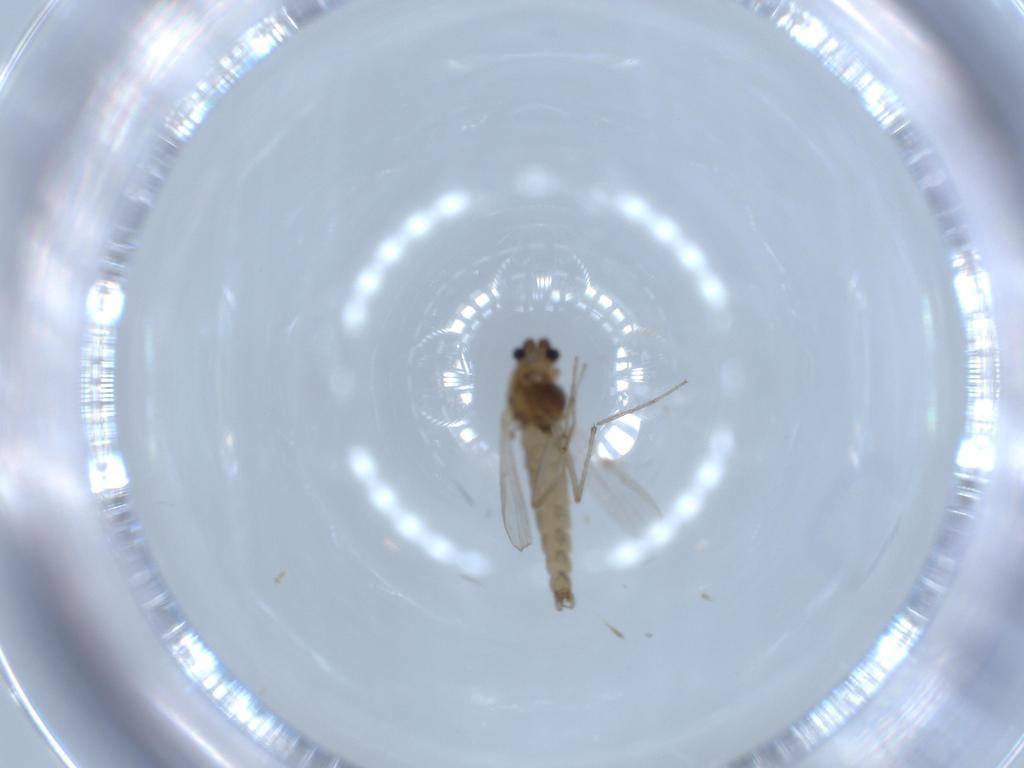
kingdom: Animalia
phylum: Arthropoda
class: Insecta
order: Diptera
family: Chironomidae
